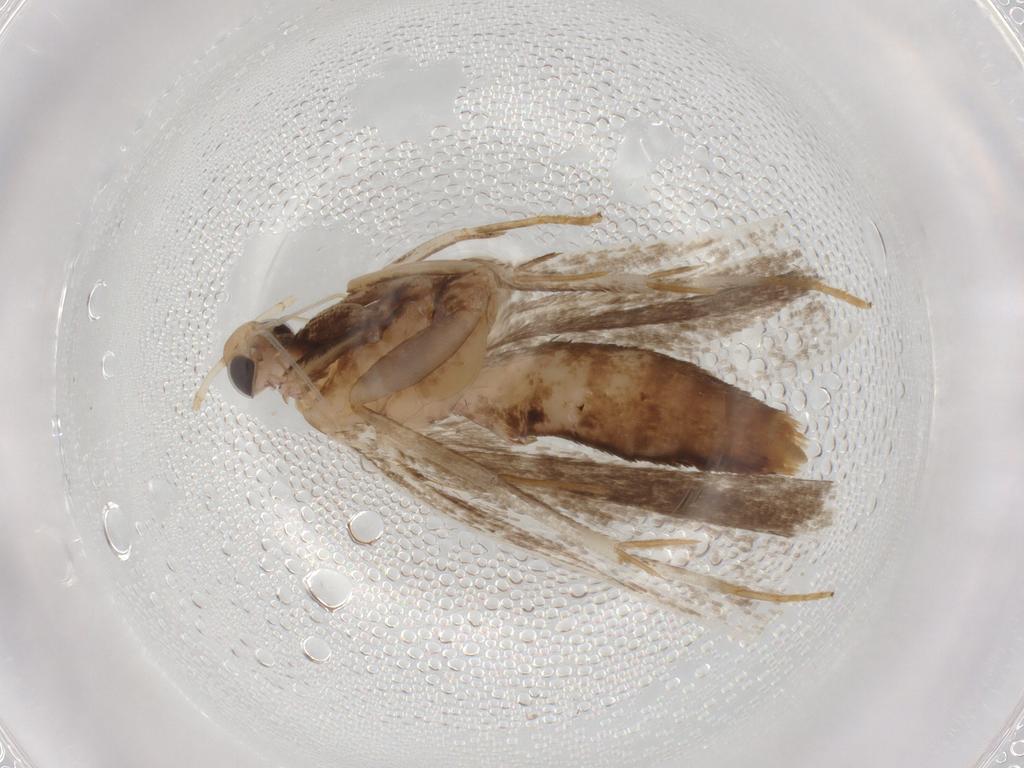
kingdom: Animalia
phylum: Arthropoda
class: Insecta
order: Lepidoptera
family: Gelechiidae
